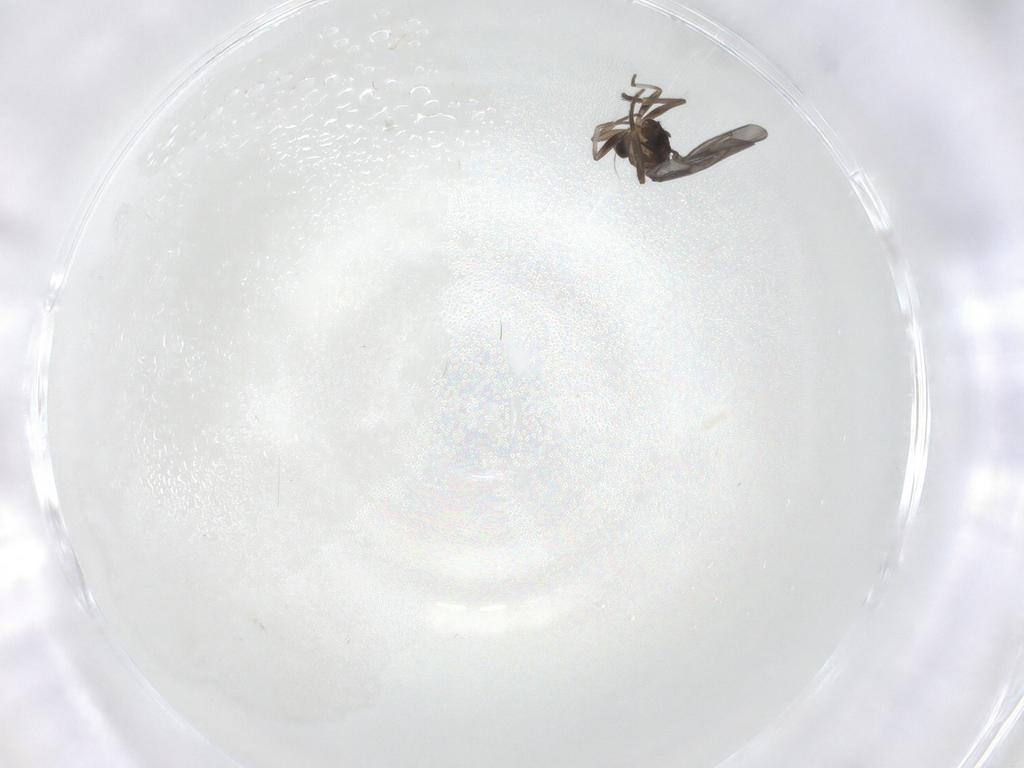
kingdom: Animalia
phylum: Arthropoda
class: Insecta
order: Diptera
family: Phoridae
